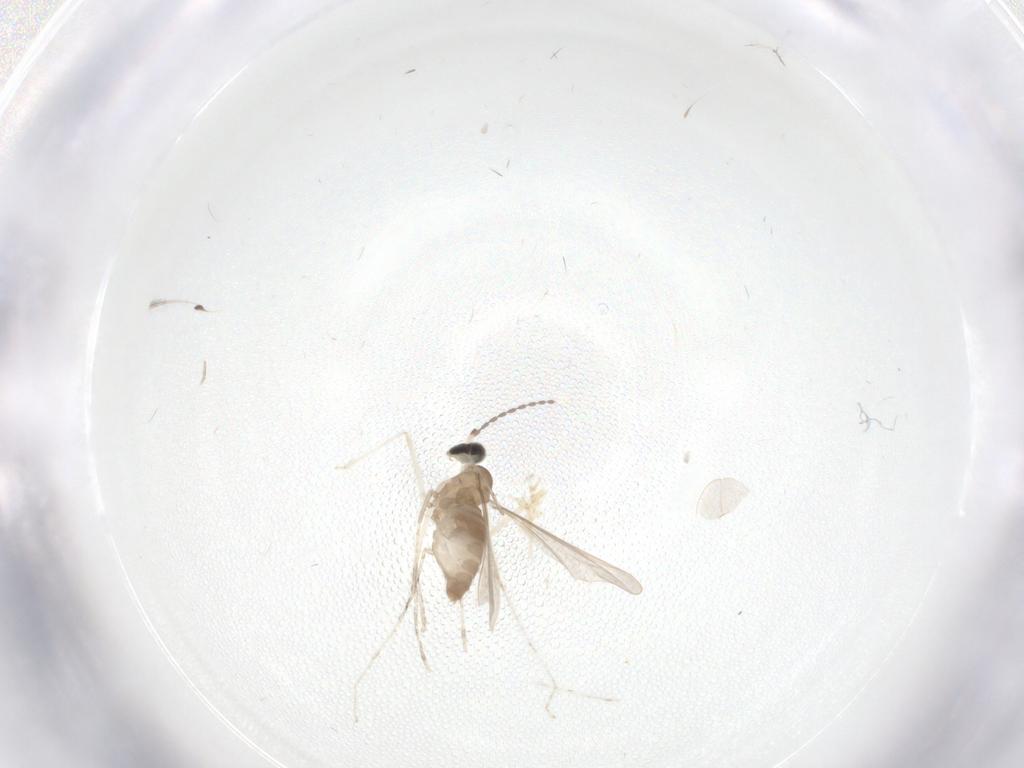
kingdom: Animalia
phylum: Arthropoda
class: Insecta
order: Diptera
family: Cecidomyiidae
